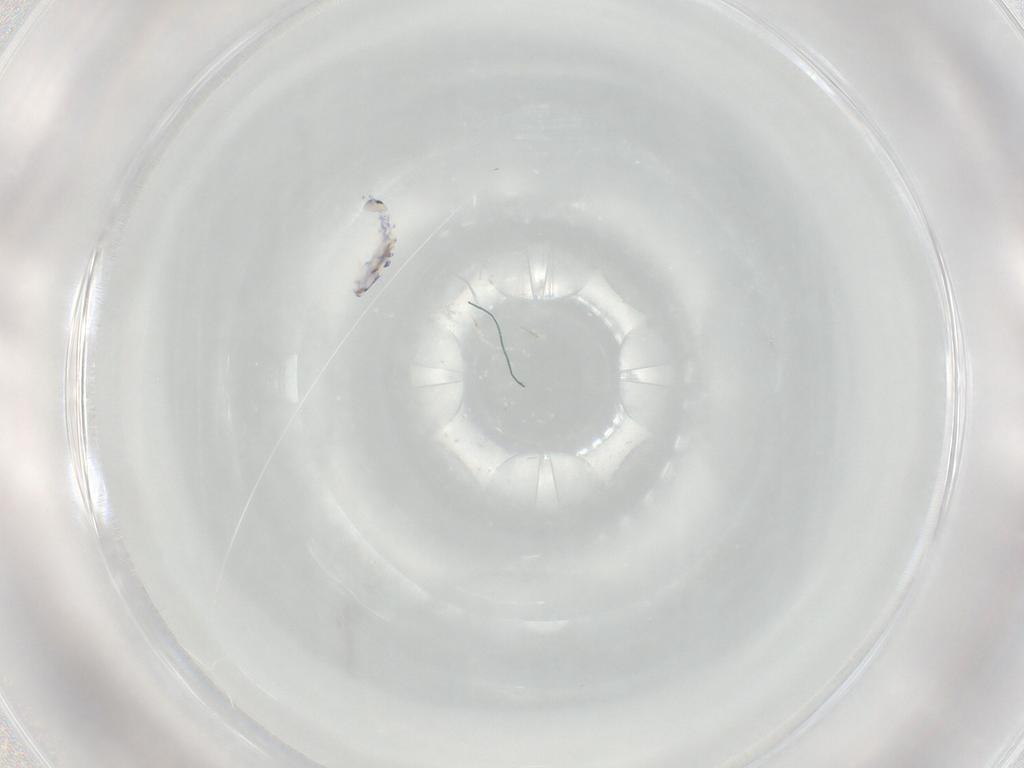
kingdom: Animalia
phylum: Arthropoda
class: Collembola
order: Entomobryomorpha
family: Entomobryidae
